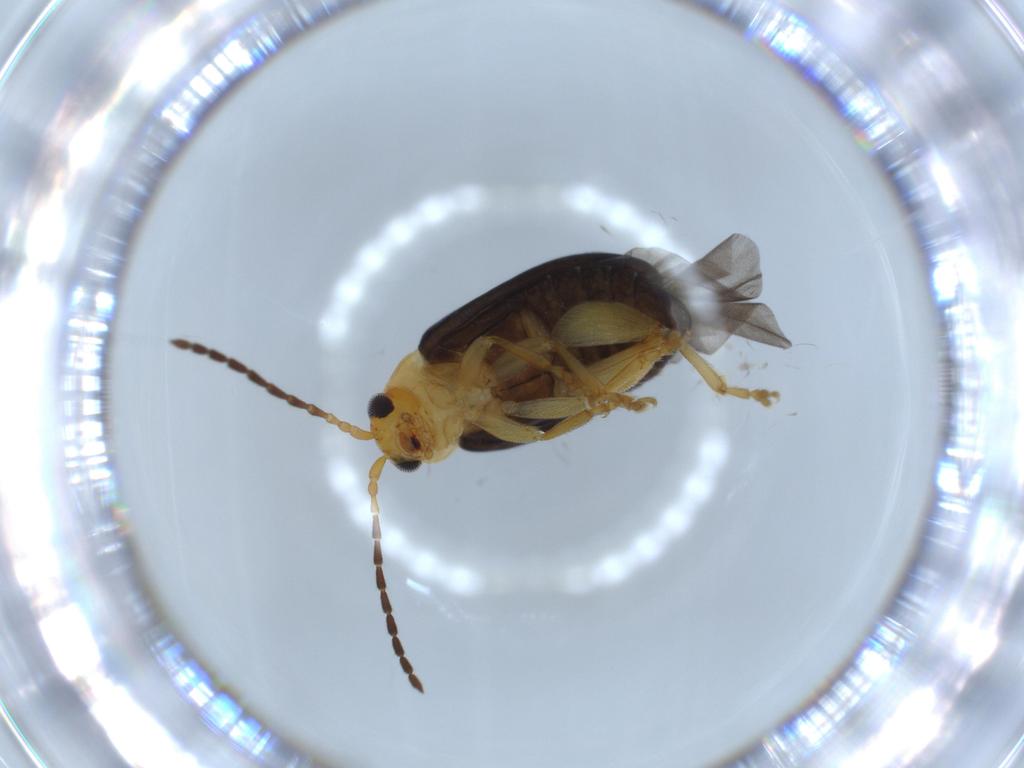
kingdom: Animalia
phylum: Arthropoda
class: Insecta
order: Coleoptera
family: Chrysomelidae
